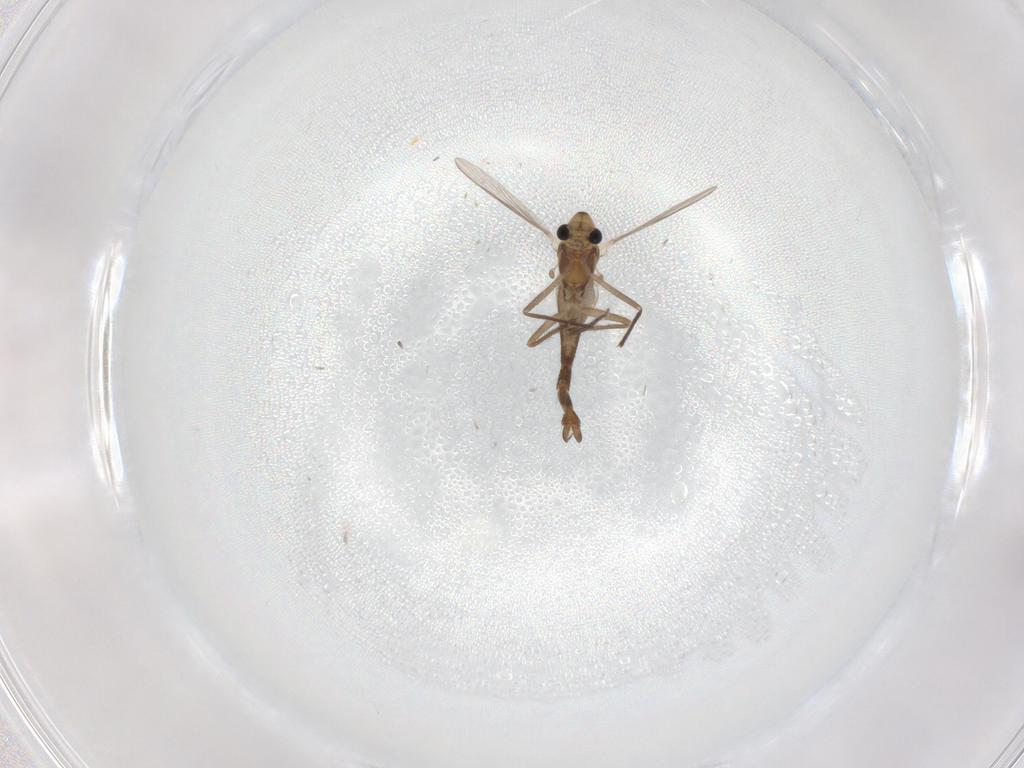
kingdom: Animalia
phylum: Arthropoda
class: Insecta
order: Diptera
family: Chironomidae
